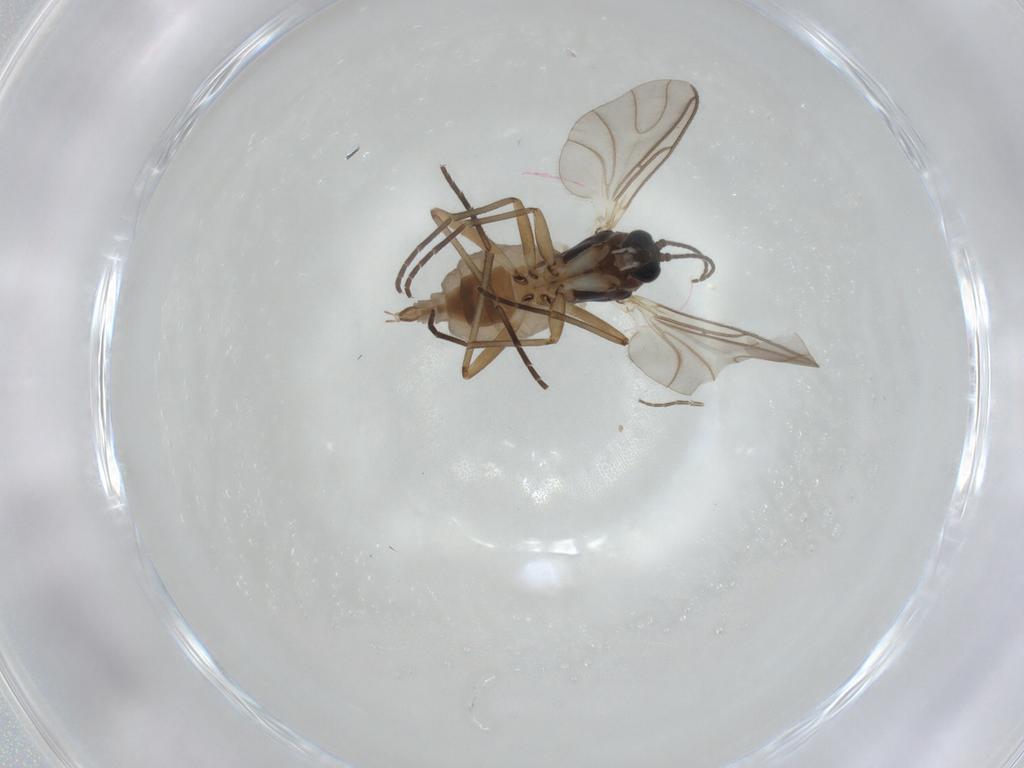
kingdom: Animalia
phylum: Arthropoda
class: Insecta
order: Diptera
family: Sciaridae
